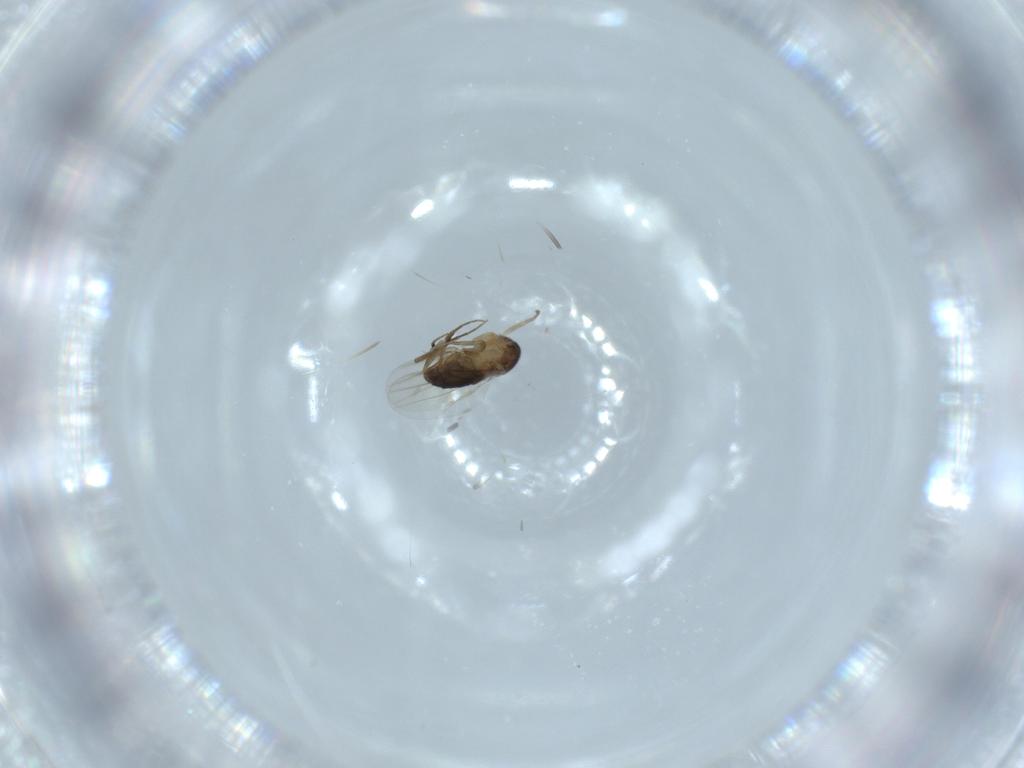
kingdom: Animalia
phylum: Arthropoda
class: Insecta
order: Diptera
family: Phoridae
